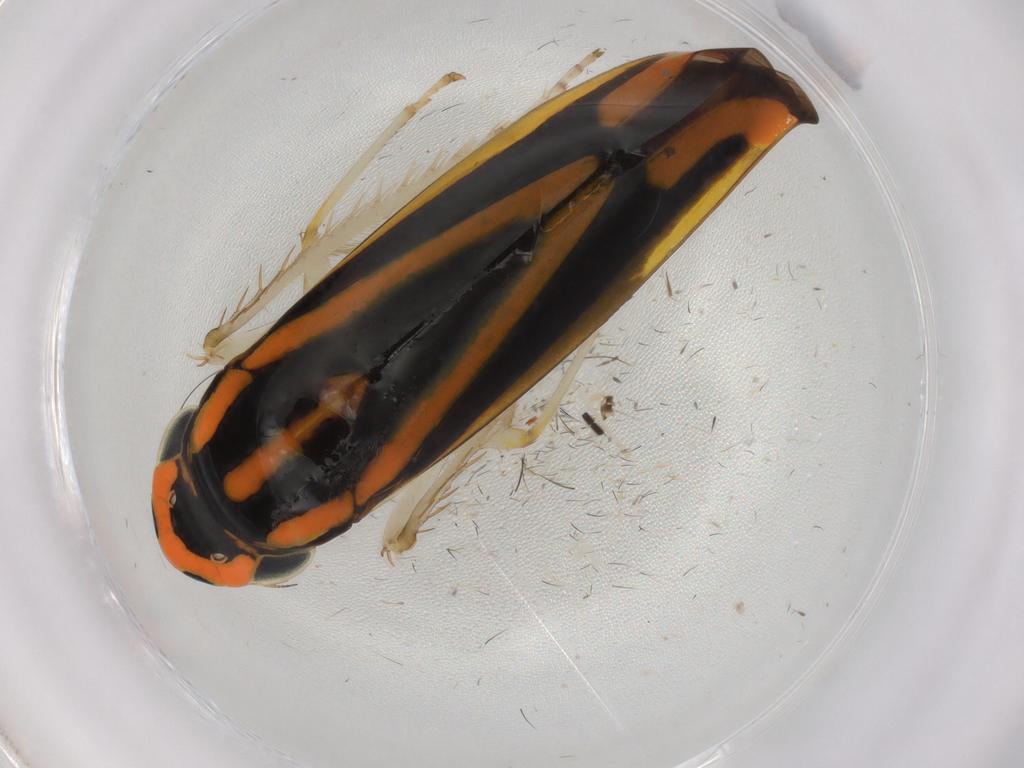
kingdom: Animalia
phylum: Arthropoda
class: Insecta
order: Hemiptera
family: Cicadellidae
